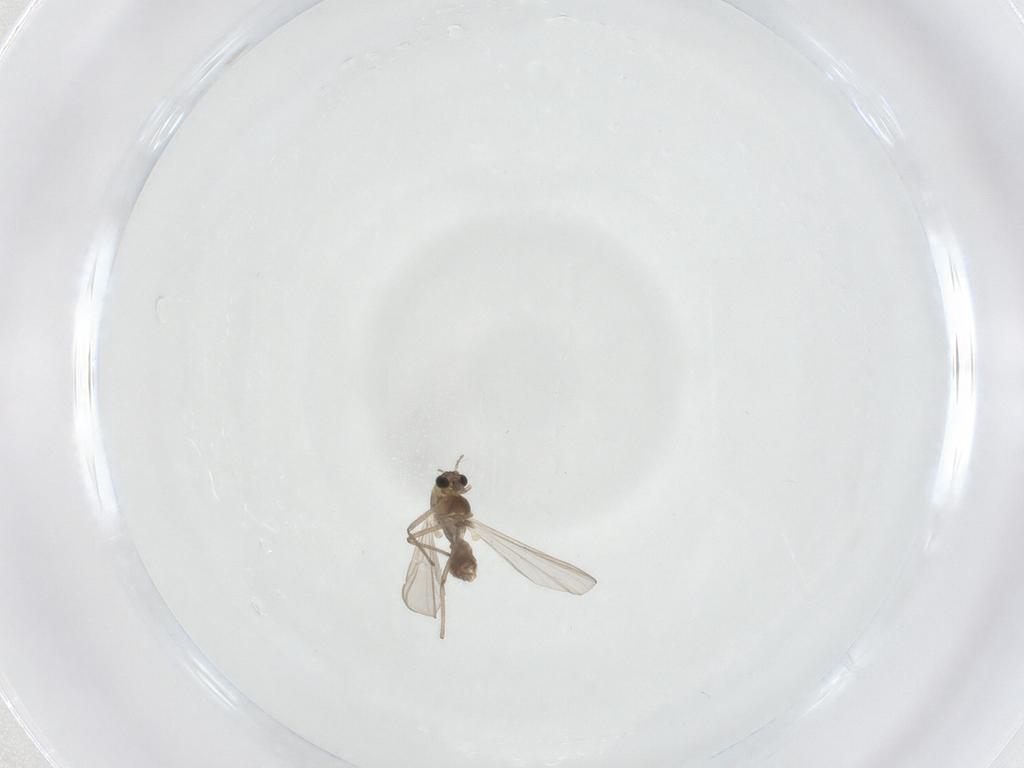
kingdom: Animalia
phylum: Arthropoda
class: Insecta
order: Diptera
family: Chironomidae
